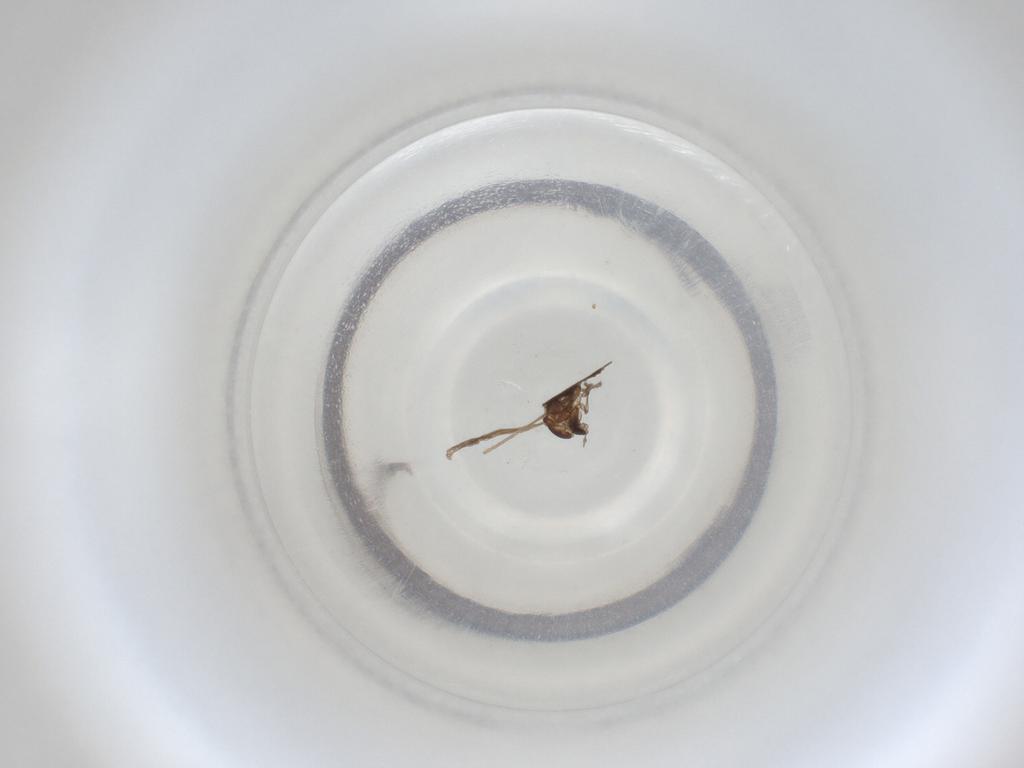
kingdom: Animalia
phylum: Arthropoda
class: Insecta
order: Diptera
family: Cecidomyiidae
